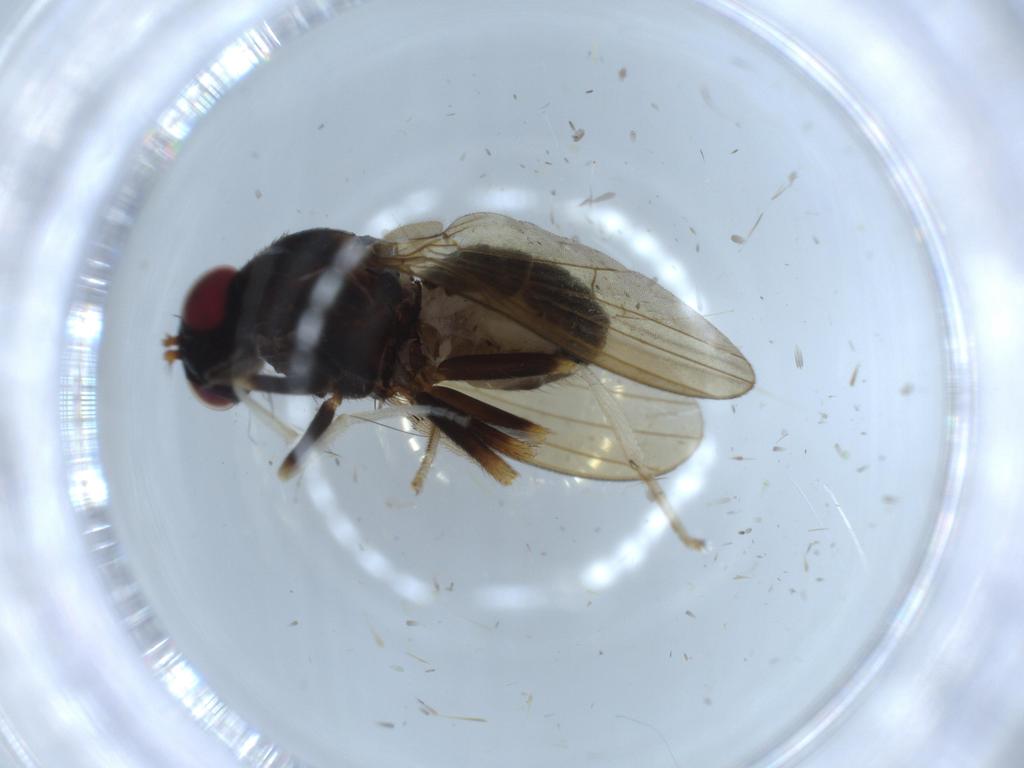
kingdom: Animalia
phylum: Arthropoda
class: Insecta
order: Diptera
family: Lauxaniidae
